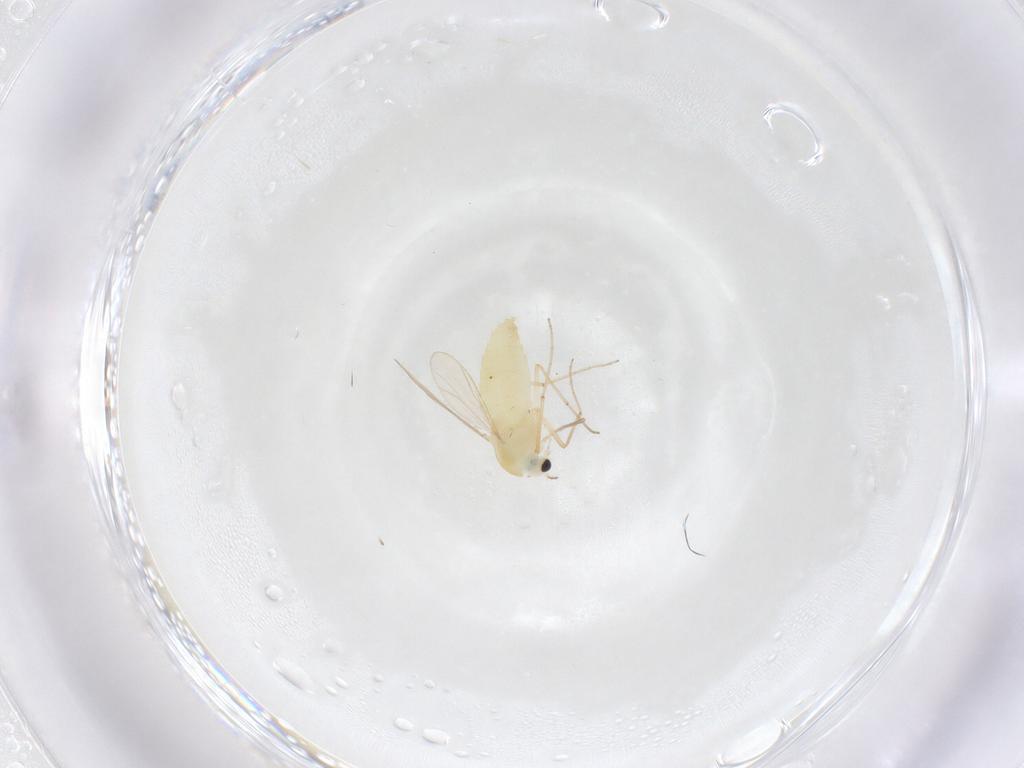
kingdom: Animalia
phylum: Arthropoda
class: Insecta
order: Diptera
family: Chironomidae
